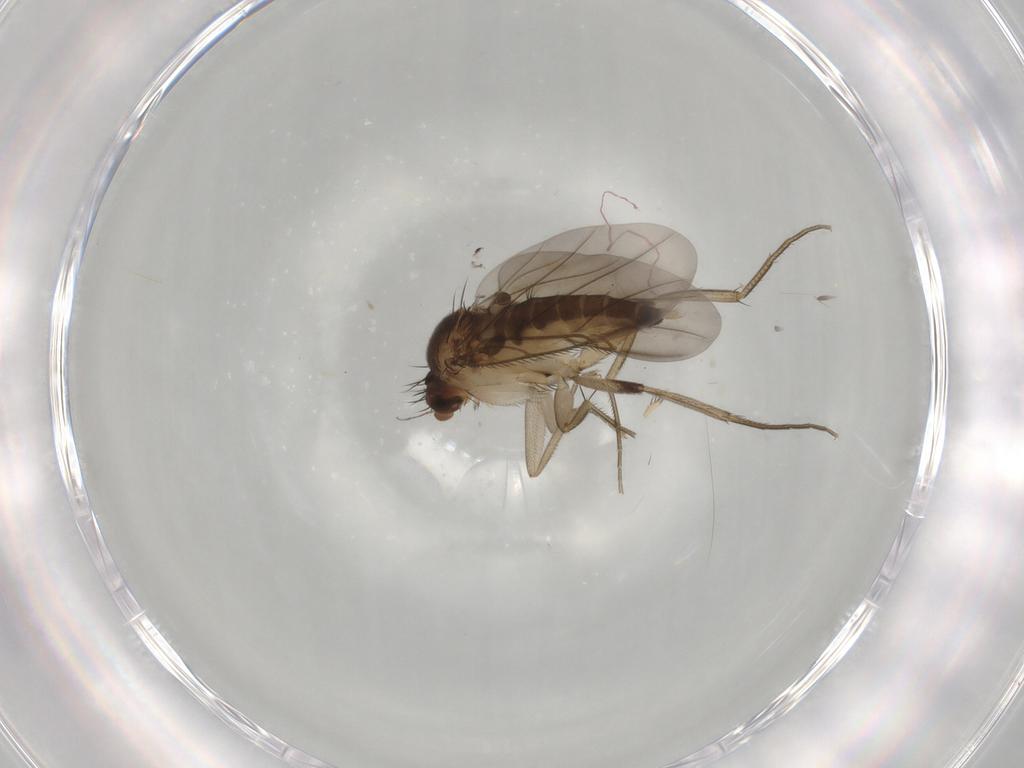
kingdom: Animalia
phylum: Arthropoda
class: Insecta
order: Diptera
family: Phoridae
